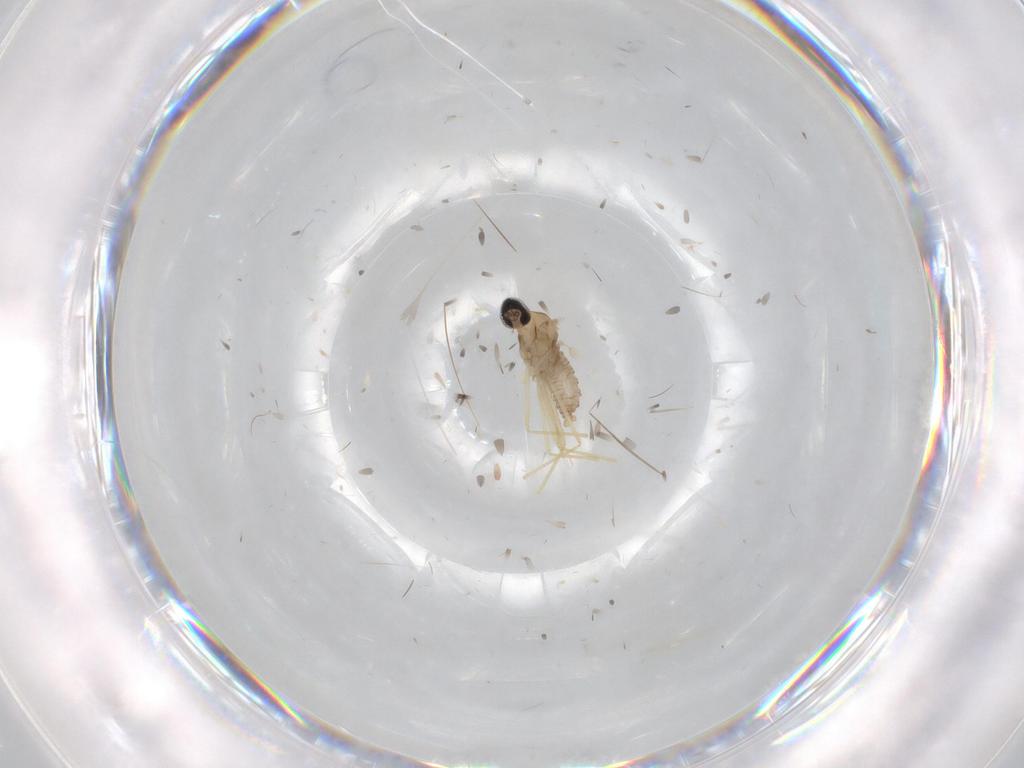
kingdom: Animalia
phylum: Arthropoda
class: Insecta
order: Diptera
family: Cecidomyiidae
